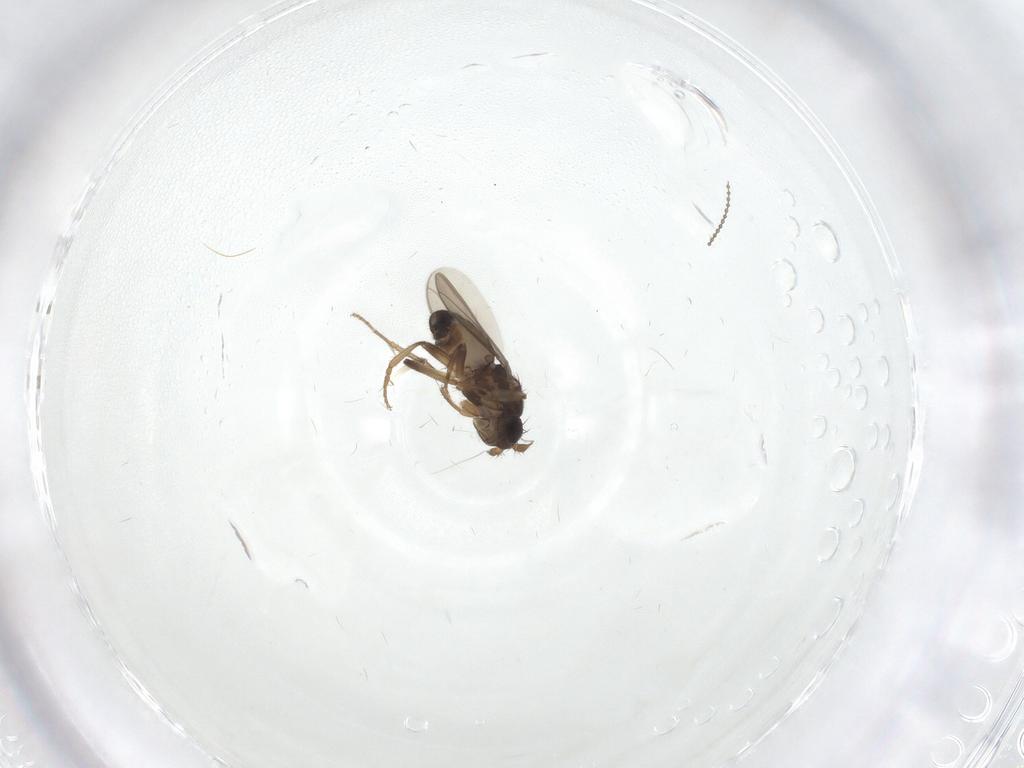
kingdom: Animalia
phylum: Arthropoda
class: Insecta
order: Diptera
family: Sphaeroceridae
